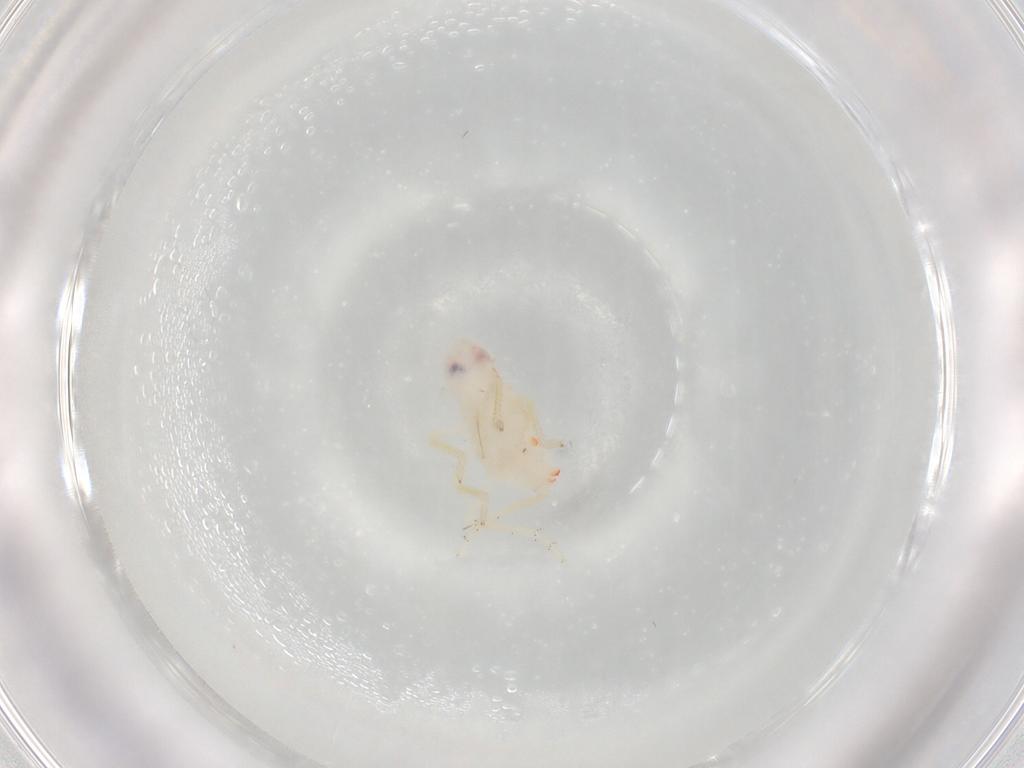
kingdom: Animalia
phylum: Arthropoda
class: Insecta
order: Hemiptera
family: Tropiduchidae
